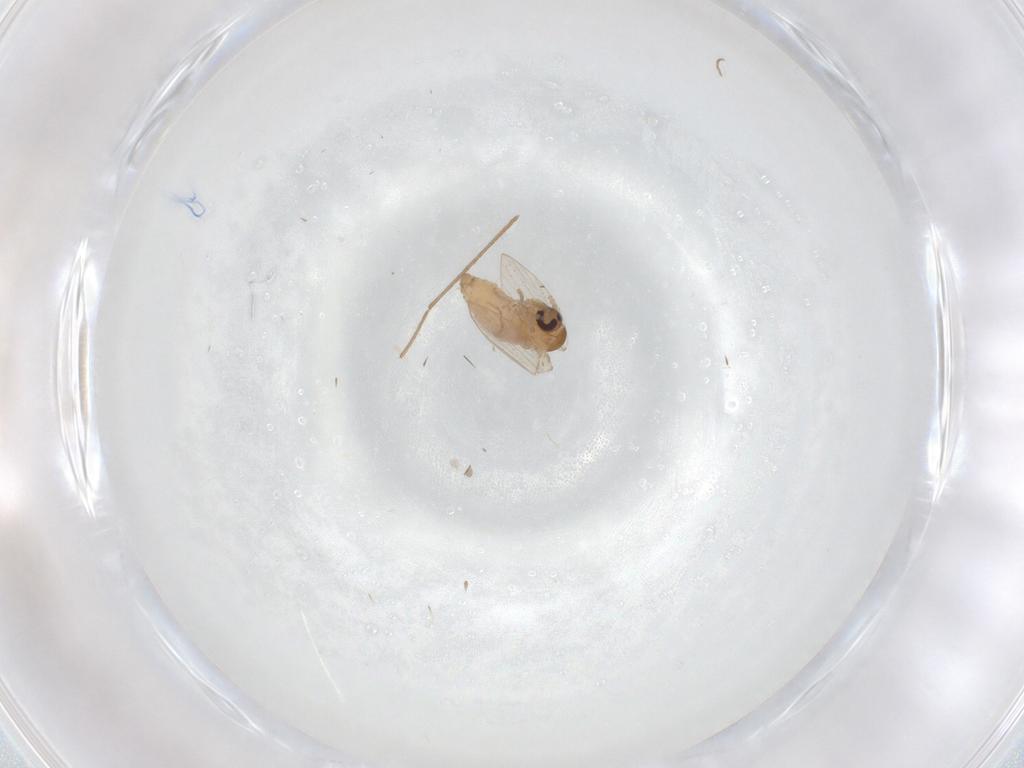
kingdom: Animalia
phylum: Arthropoda
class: Insecta
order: Diptera
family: Psychodidae
